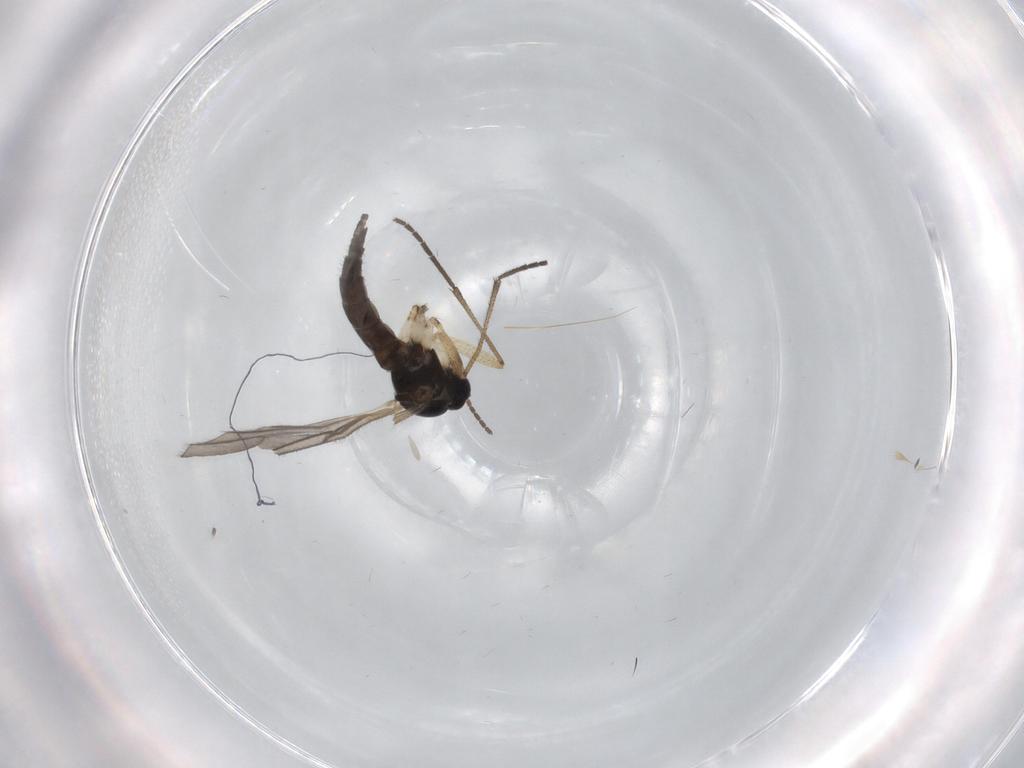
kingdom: Animalia
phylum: Arthropoda
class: Insecta
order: Diptera
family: Sciaridae
